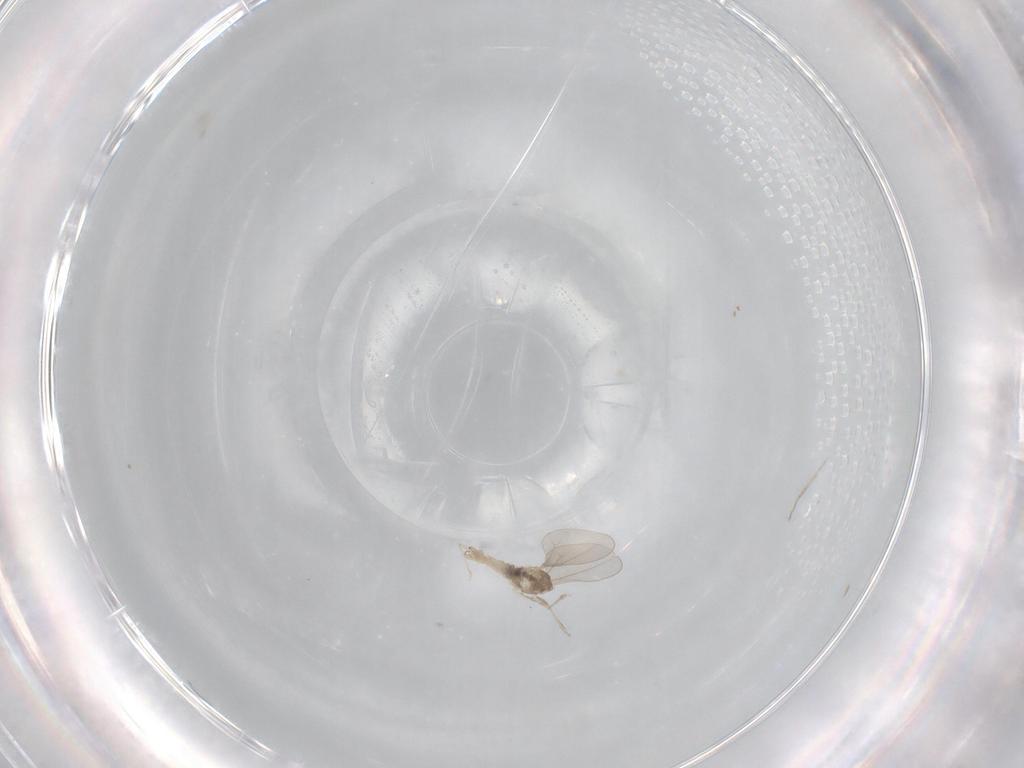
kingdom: Animalia
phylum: Arthropoda
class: Insecta
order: Diptera
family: Cecidomyiidae
